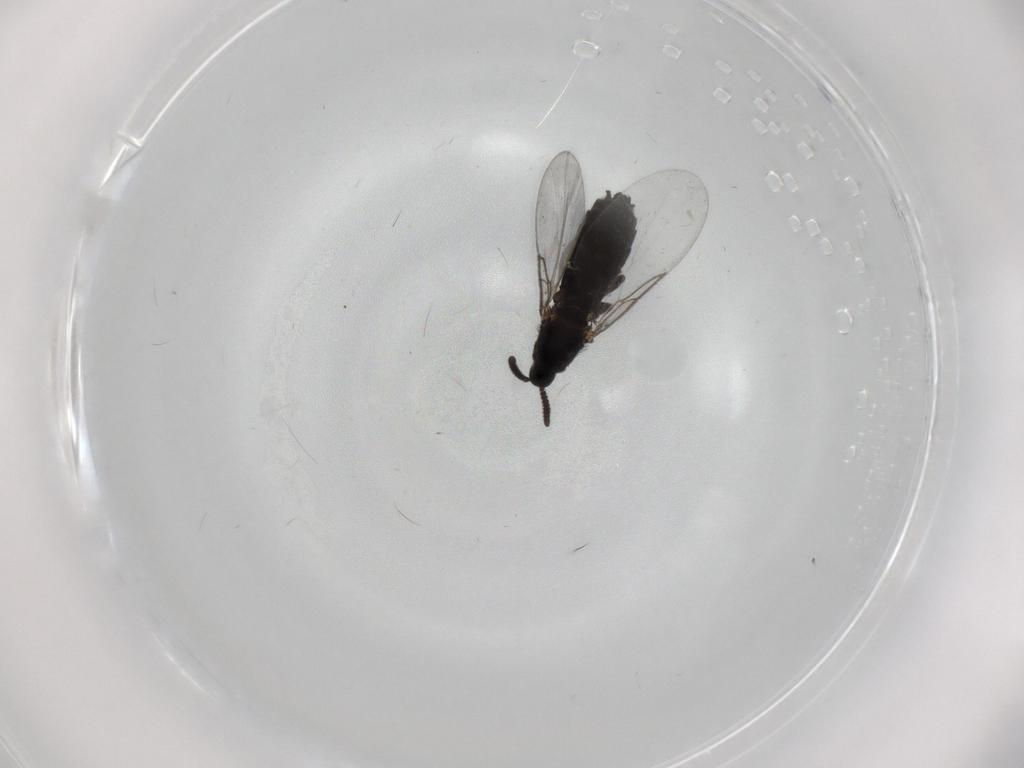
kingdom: Animalia
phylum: Arthropoda
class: Insecta
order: Diptera
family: Scatopsidae
